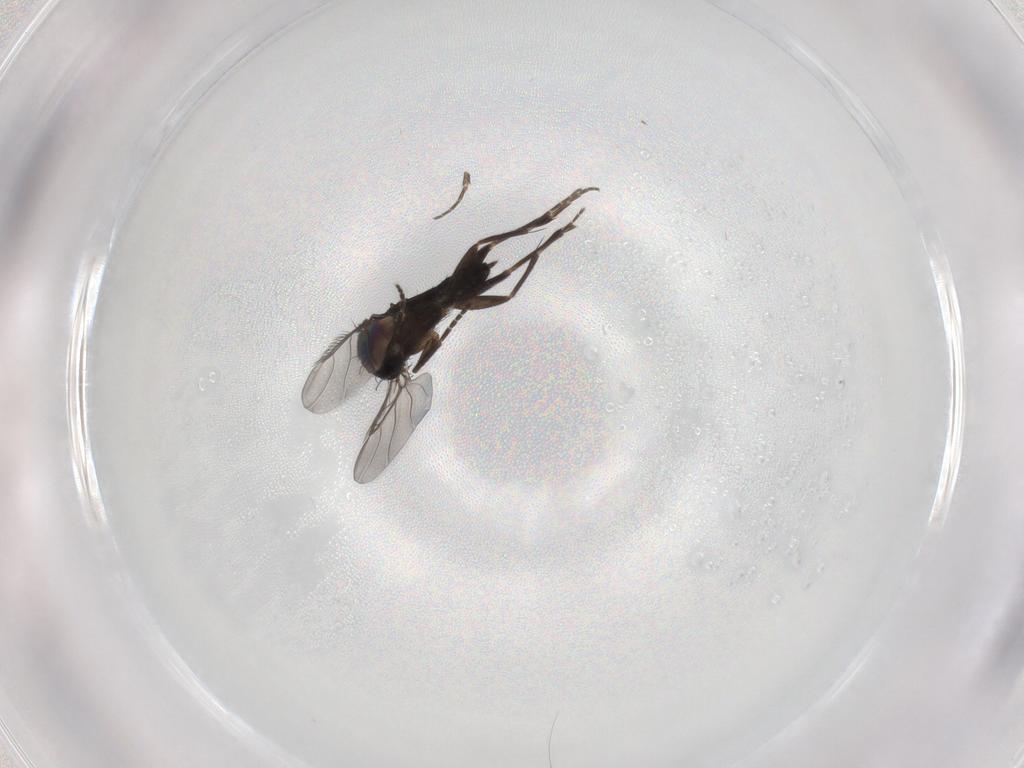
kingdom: Animalia
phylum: Arthropoda
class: Insecta
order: Diptera
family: Phoridae
